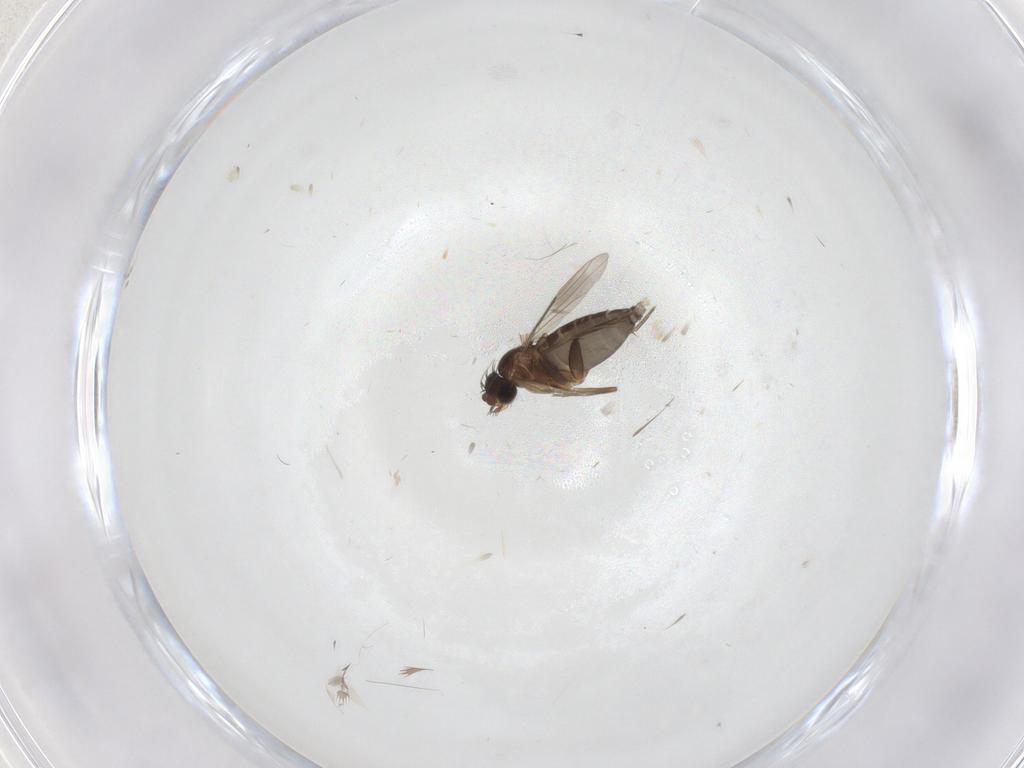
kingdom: Animalia
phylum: Arthropoda
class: Insecta
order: Diptera
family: Phoridae
